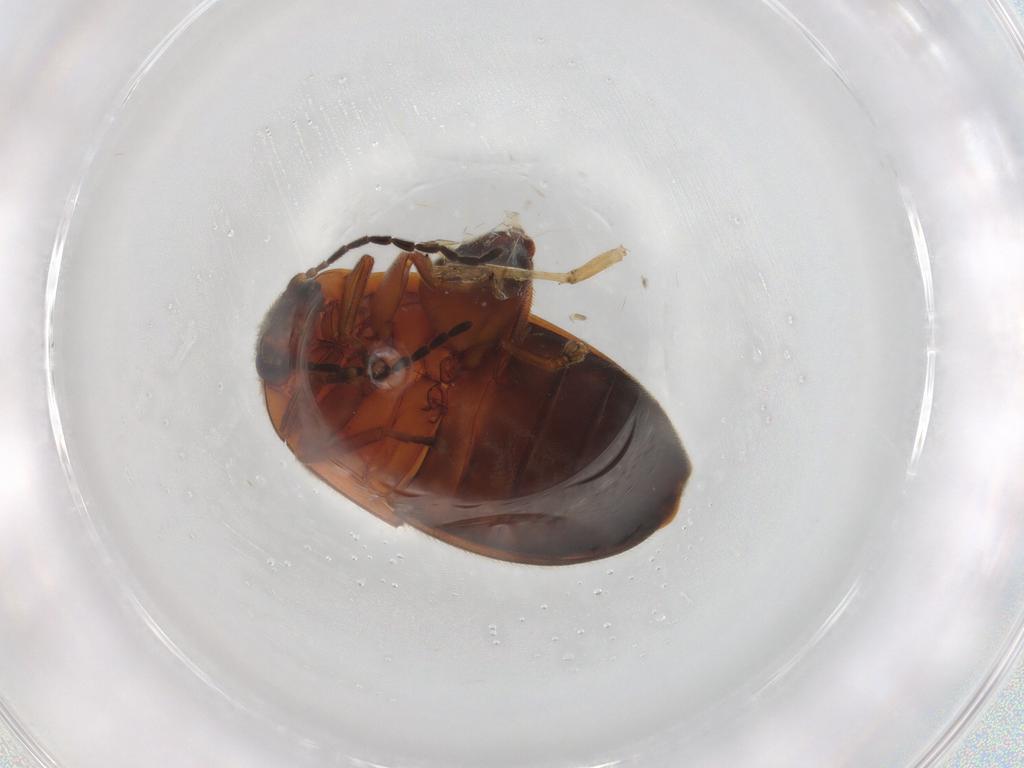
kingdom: Animalia
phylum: Arthropoda
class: Insecta
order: Coleoptera
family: Scirtidae
